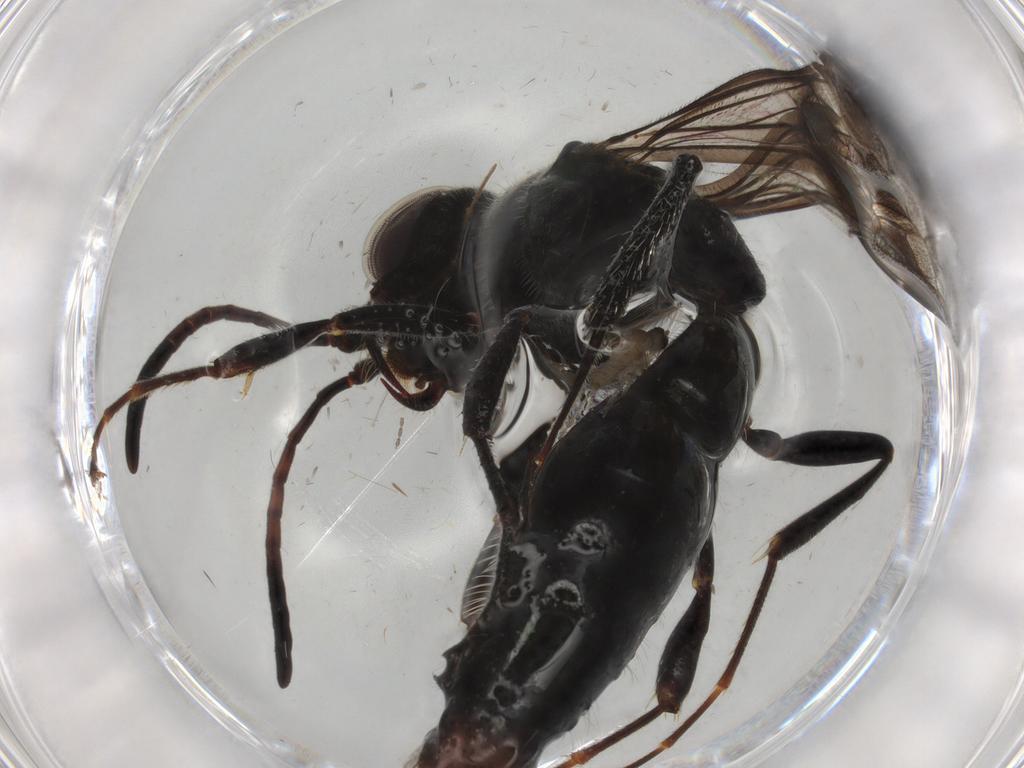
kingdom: Animalia
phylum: Arthropoda
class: Insecta
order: Hymenoptera
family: Thynnidae
